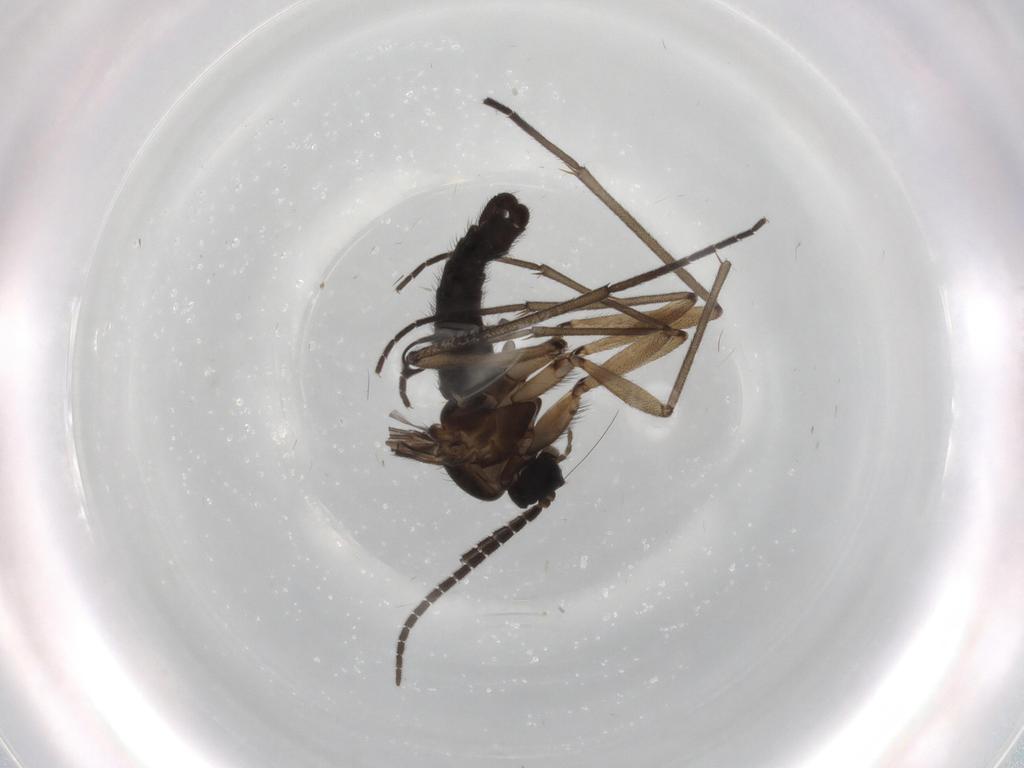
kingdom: Animalia
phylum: Arthropoda
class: Insecta
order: Diptera
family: Sciaridae
